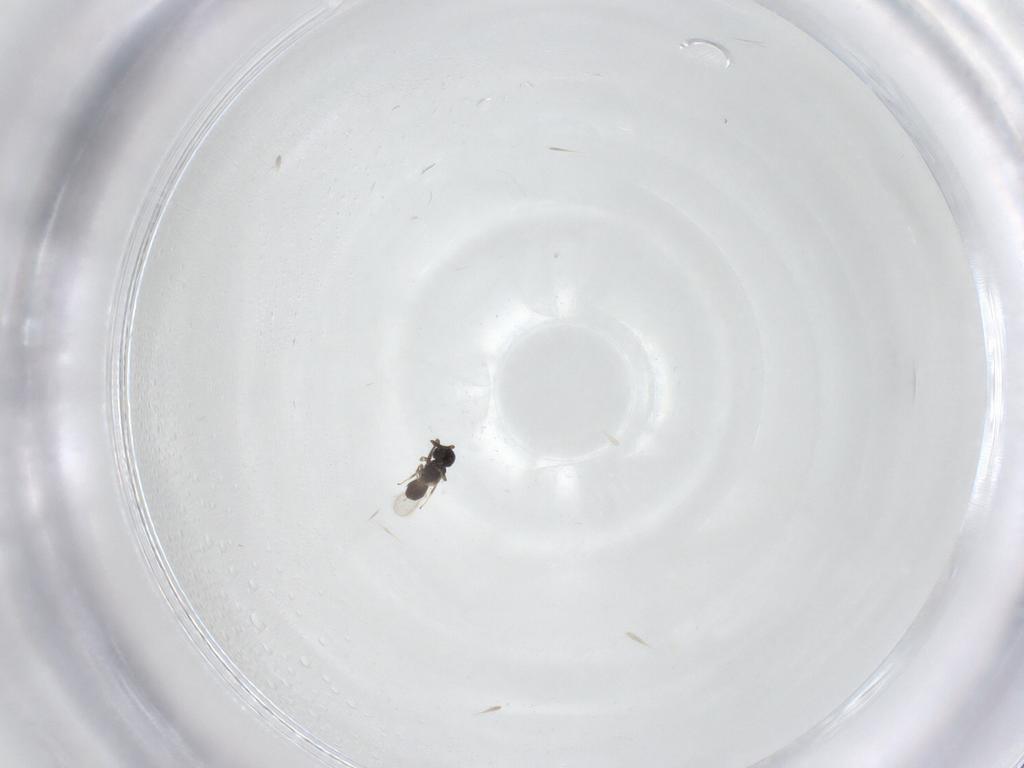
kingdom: Animalia
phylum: Arthropoda
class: Insecta
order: Hymenoptera
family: Scelionidae
